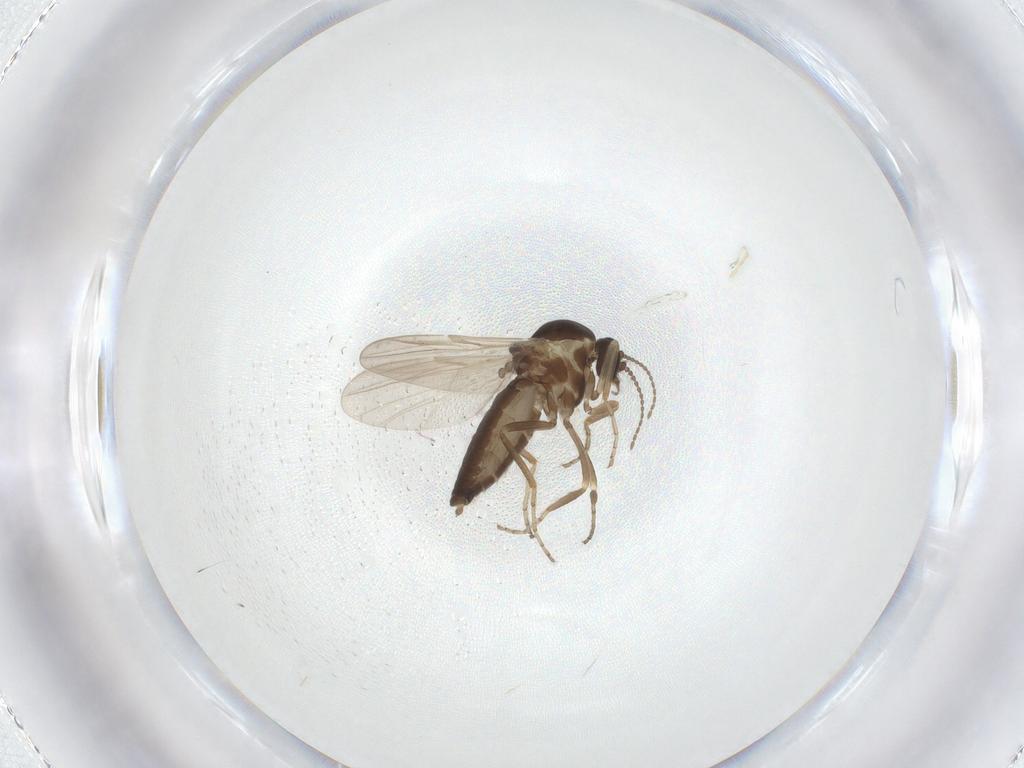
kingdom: Animalia
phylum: Arthropoda
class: Insecta
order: Diptera
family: Ceratopogonidae
